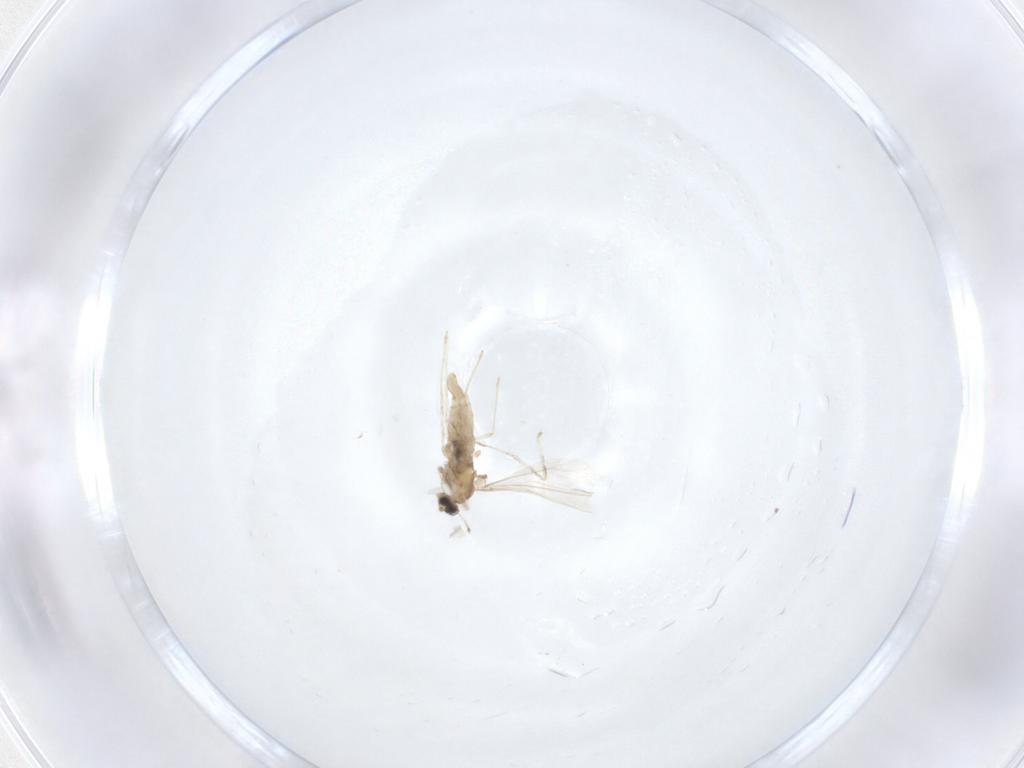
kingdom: Animalia
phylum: Arthropoda
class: Insecta
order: Diptera
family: Cecidomyiidae
